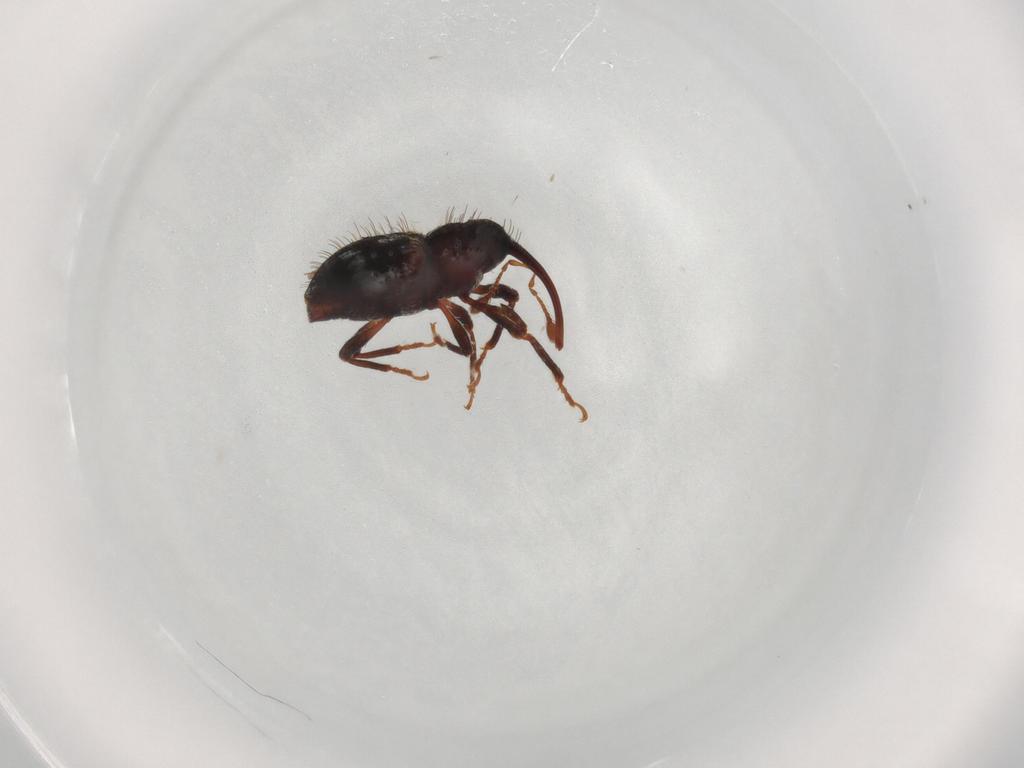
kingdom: Animalia
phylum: Arthropoda
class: Insecta
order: Coleoptera
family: Curculionidae
